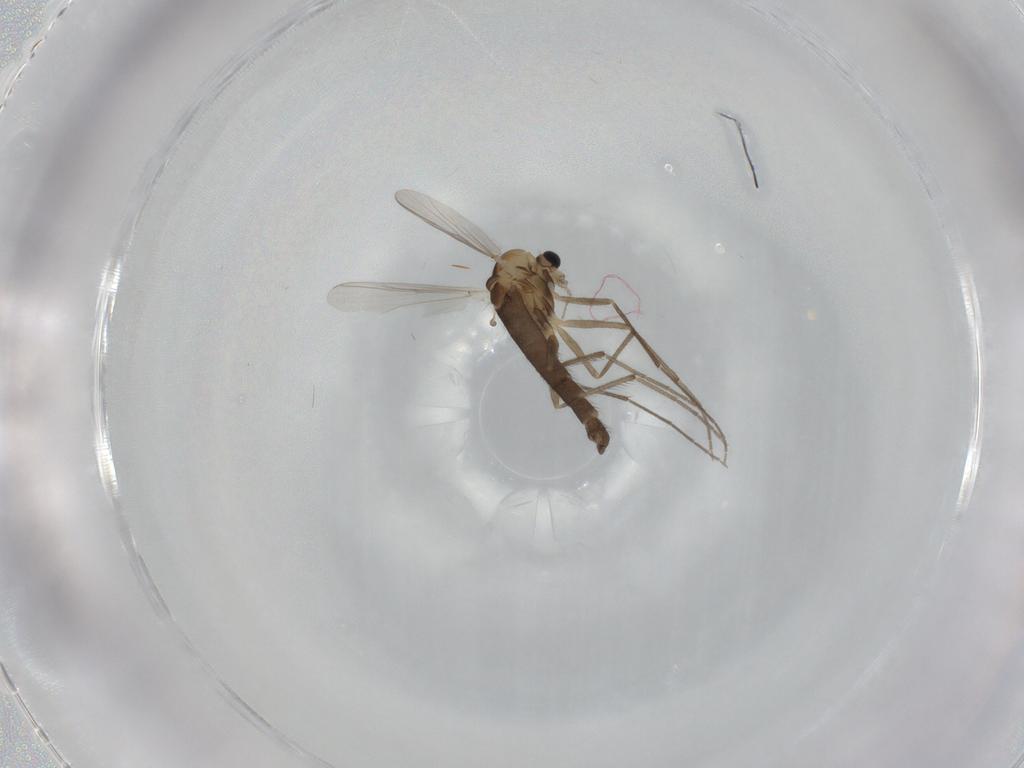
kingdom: Animalia
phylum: Arthropoda
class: Insecta
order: Diptera
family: Chironomidae
